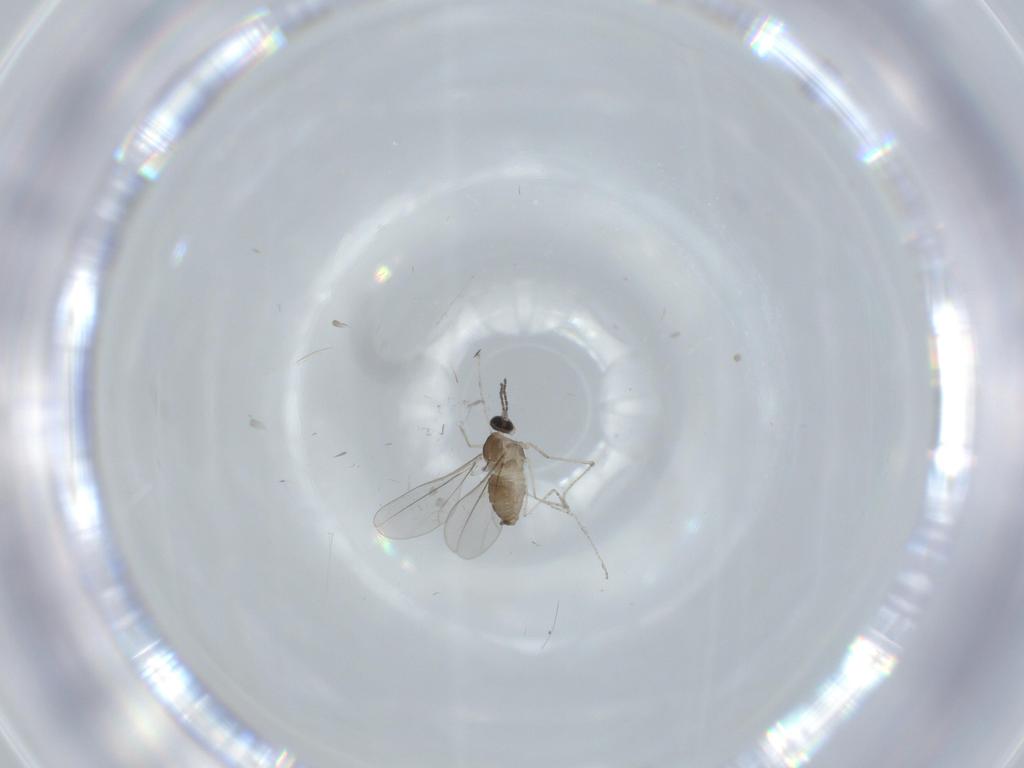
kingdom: Animalia
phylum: Arthropoda
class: Insecta
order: Diptera
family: Cecidomyiidae
